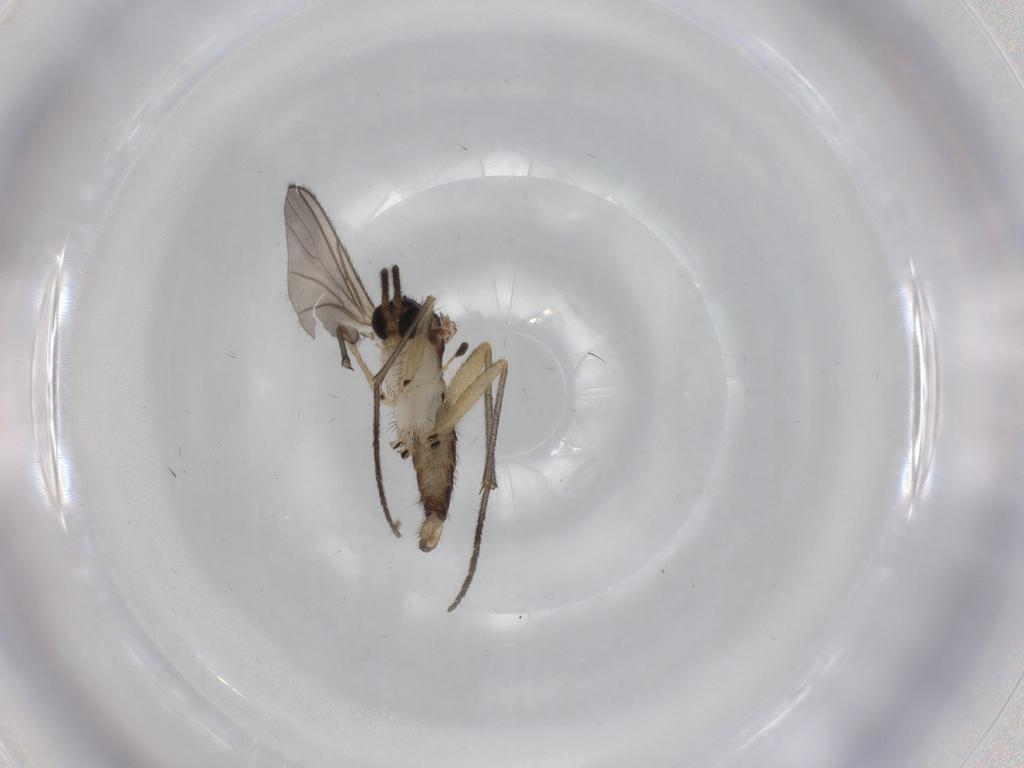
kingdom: Animalia
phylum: Arthropoda
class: Insecta
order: Diptera
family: Sciaridae
